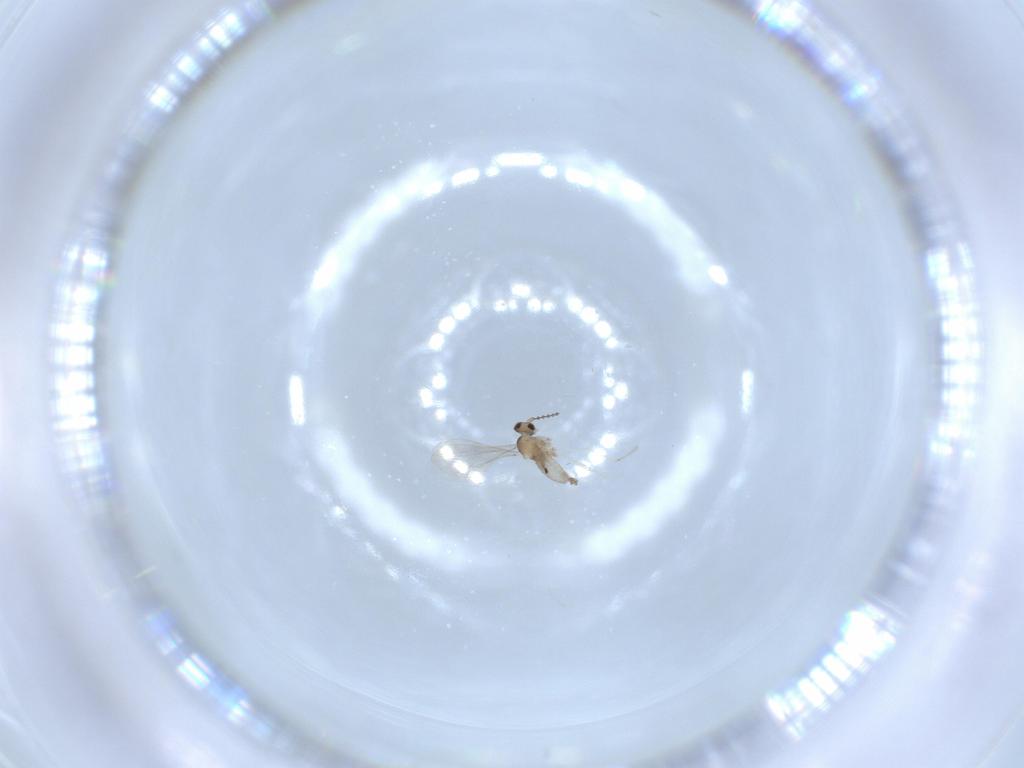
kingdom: Animalia
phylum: Arthropoda
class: Insecta
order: Diptera
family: Cecidomyiidae
